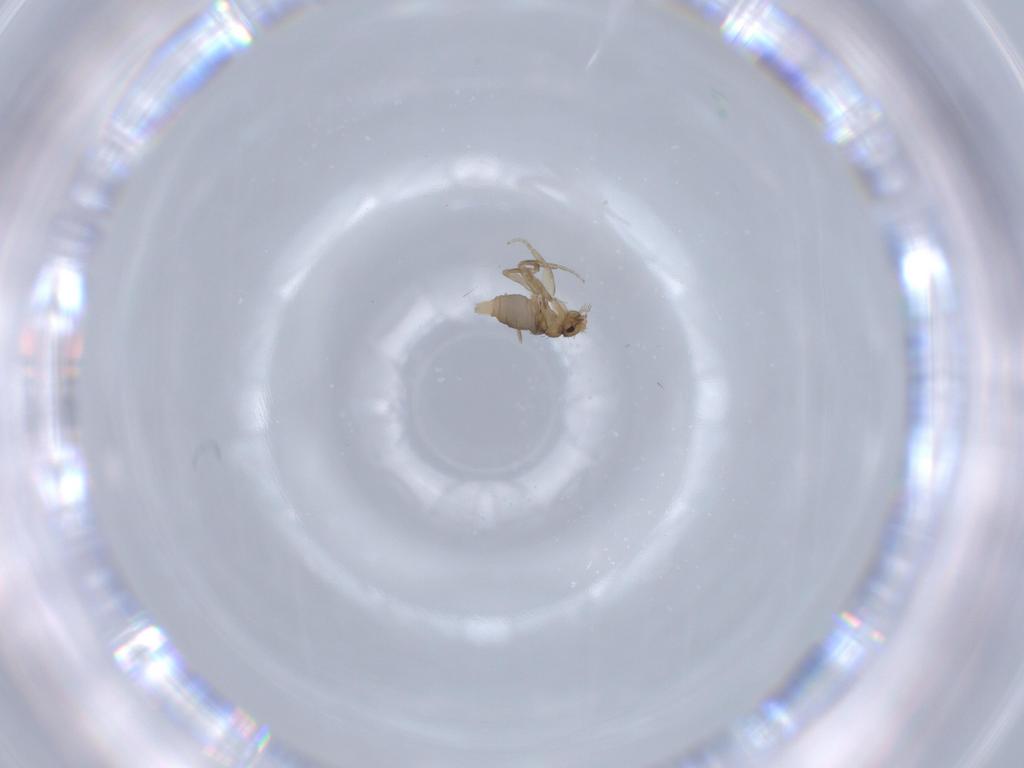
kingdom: Animalia
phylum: Arthropoda
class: Insecta
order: Diptera
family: Phoridae
